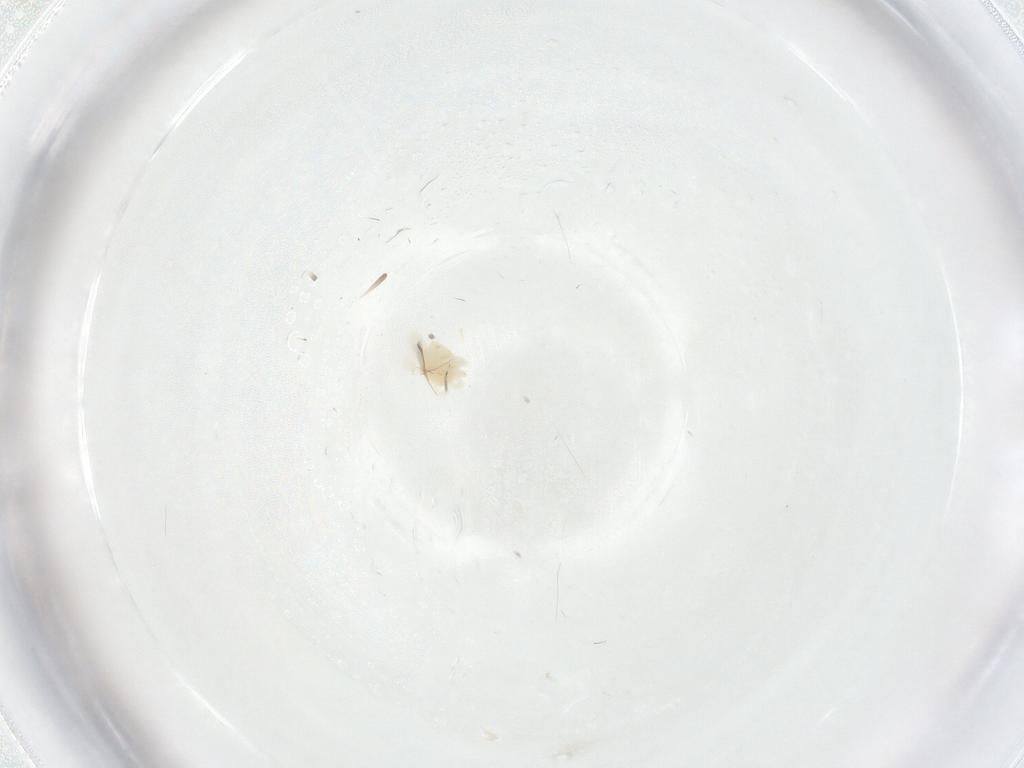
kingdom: Animalia
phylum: Arthropoda
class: Arachnida
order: Trombidiformes
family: Anystidae
